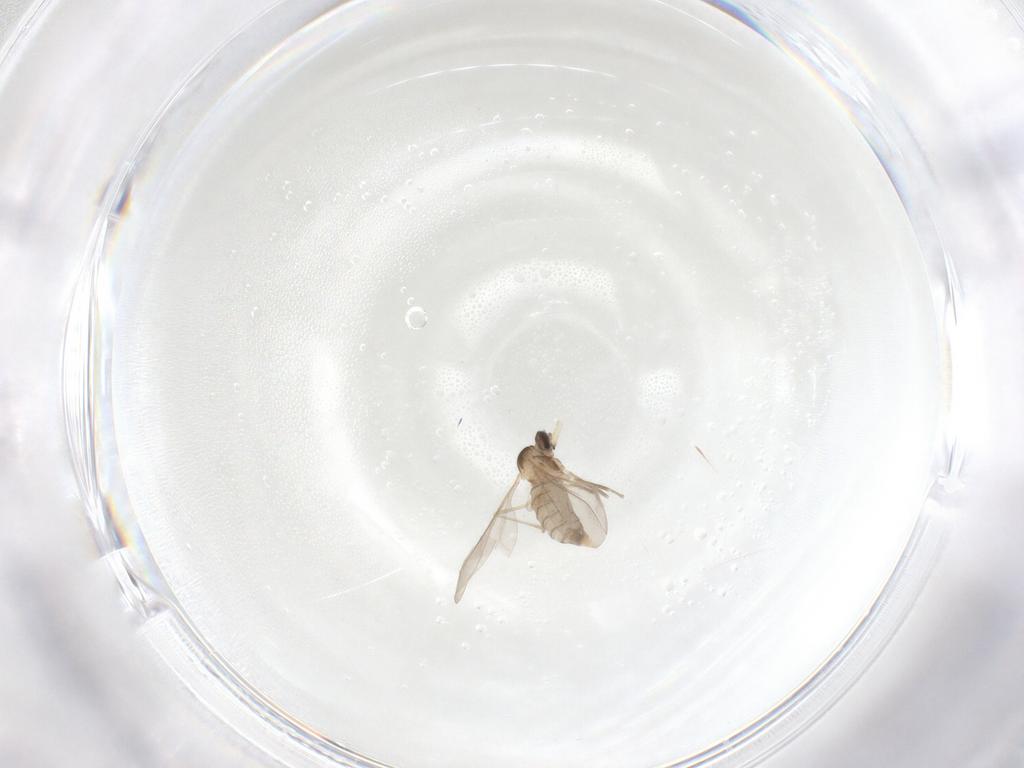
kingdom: Animalia
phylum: Arthropoda
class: Insecta
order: Diptera
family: Cecidomyiidae
